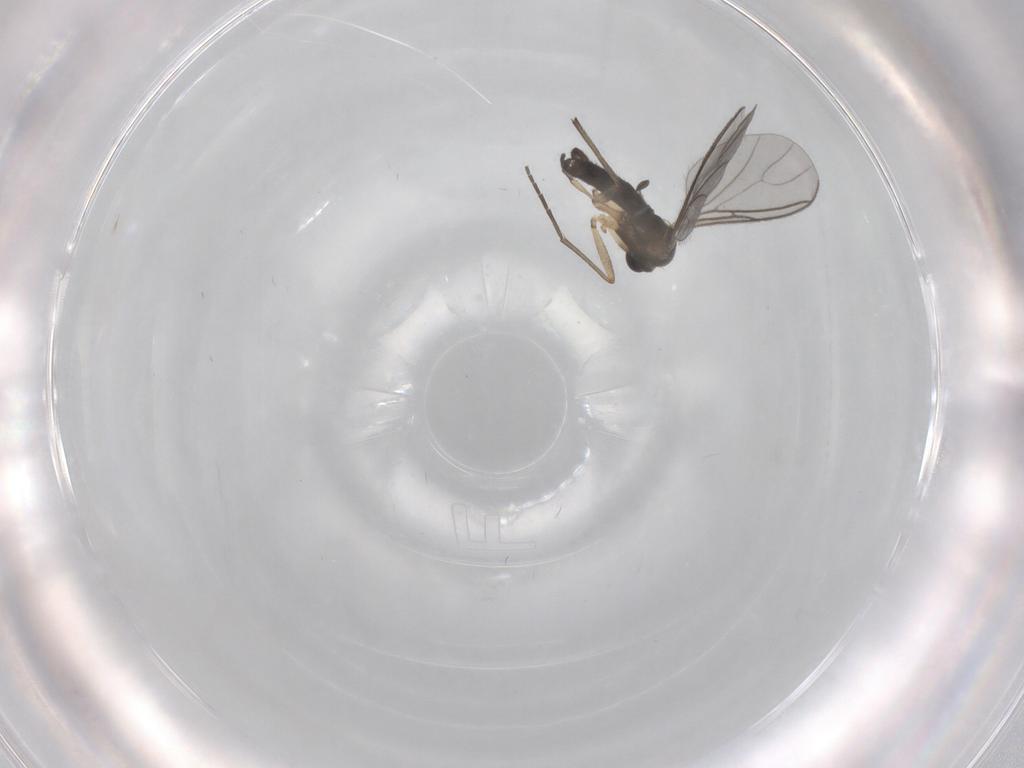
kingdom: Animalia
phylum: Arthropoda
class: Insecta
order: Diptera
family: Sciaridae
